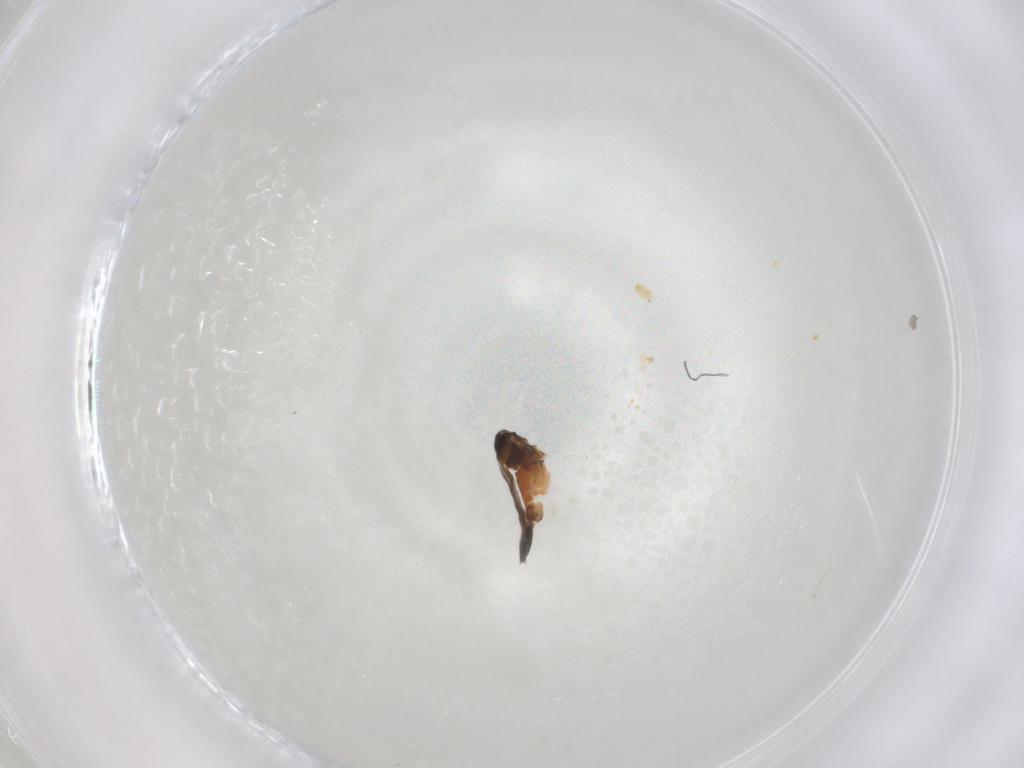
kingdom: Animalia
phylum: Arthropoda
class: Insecta
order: Hemiptera
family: Aleyrodidae
